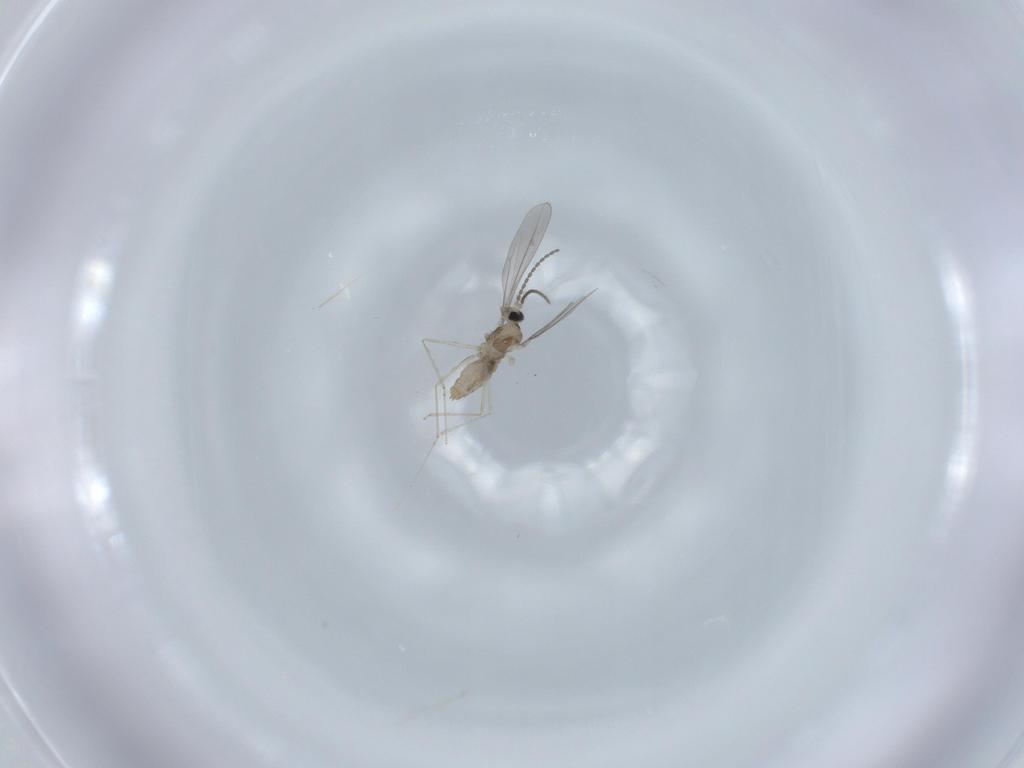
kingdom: Animalia
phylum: Arthropoda
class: Insecta
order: Diptera
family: Cecidomyiidae
